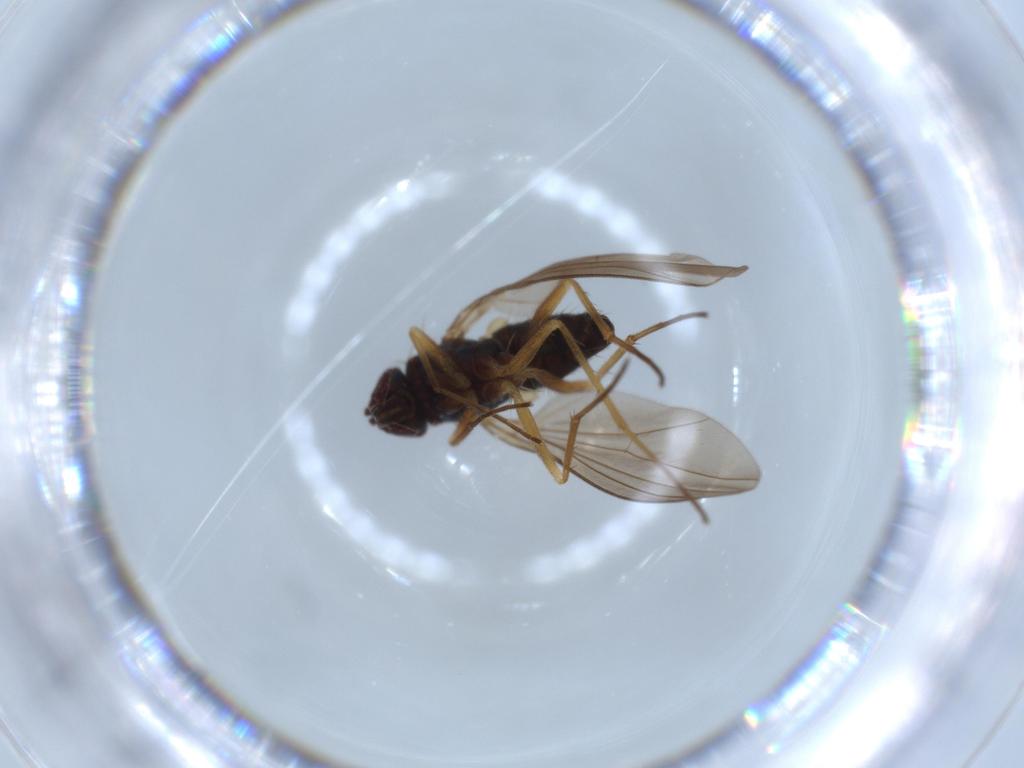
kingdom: Animalia
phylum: Arthropoda
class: Insecta
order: Diptera
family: Dolichopodidae
